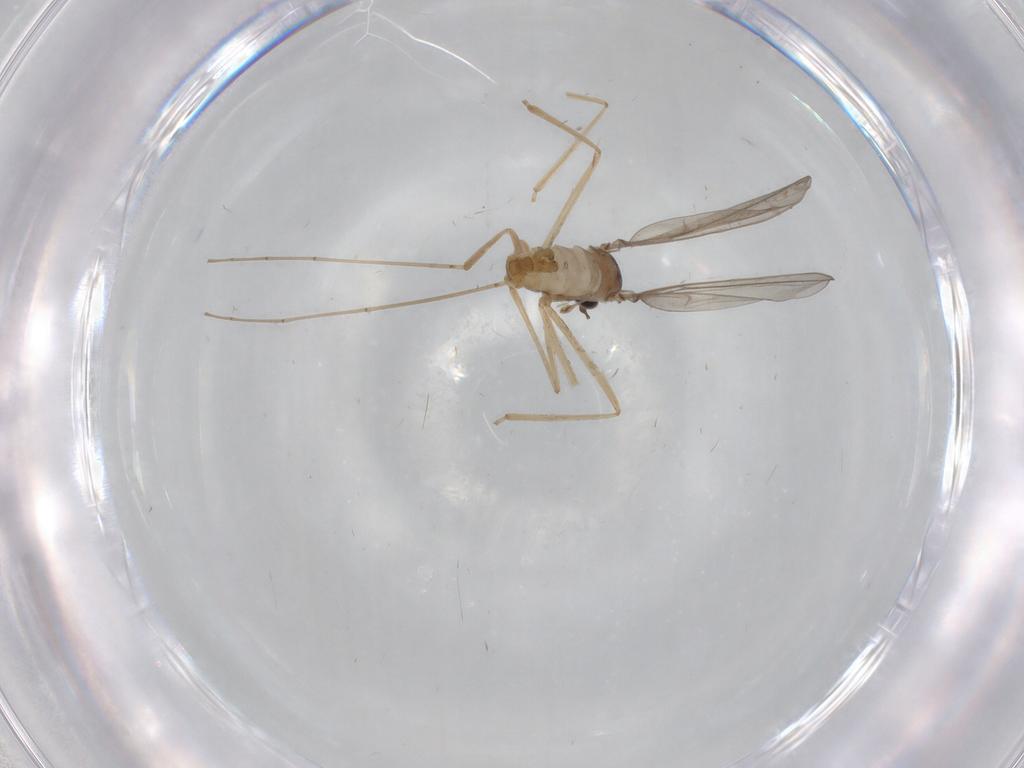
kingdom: Animalia
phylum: Arthropoda
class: Insecta
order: Diptera
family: Cecidomyiidae
